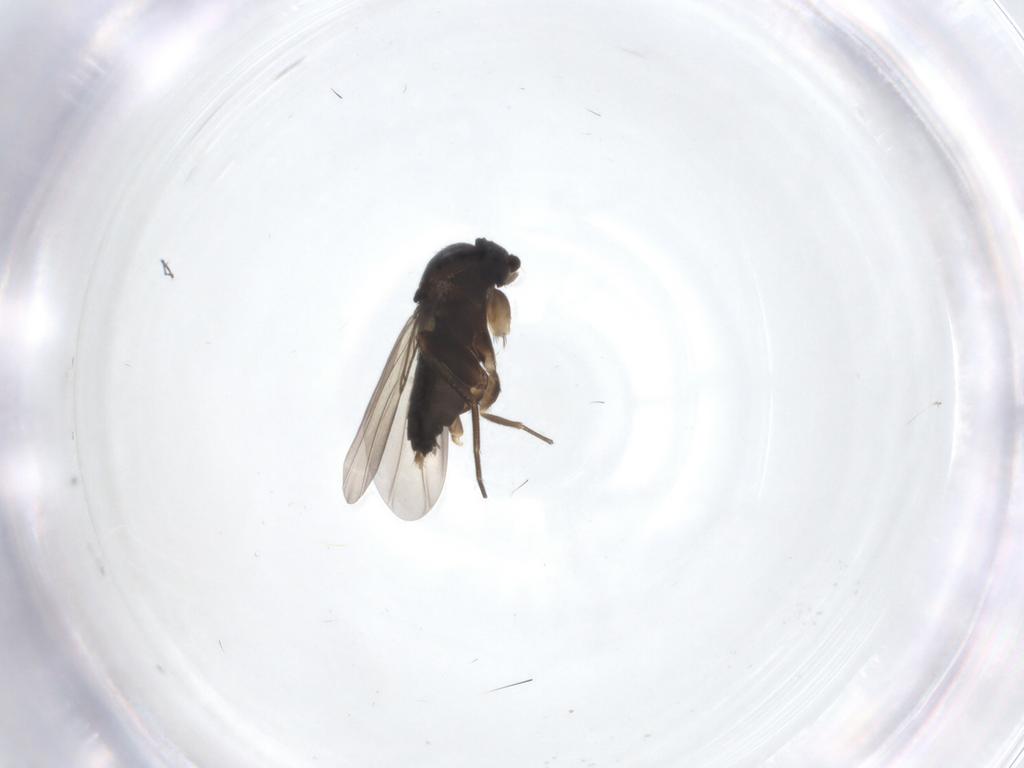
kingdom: Animalia
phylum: Arthropoda
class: Insecta
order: Diptera
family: Phoridae
